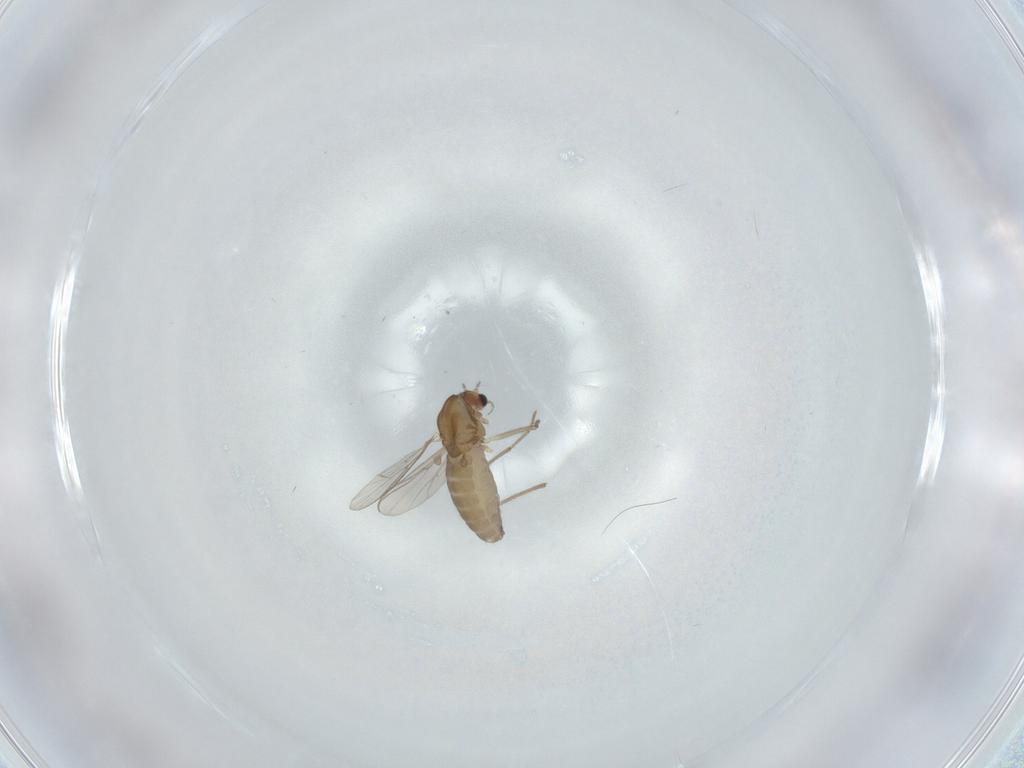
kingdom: Animalia
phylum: Arthropoda
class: Insecta
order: Diptera
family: Chironomidae
